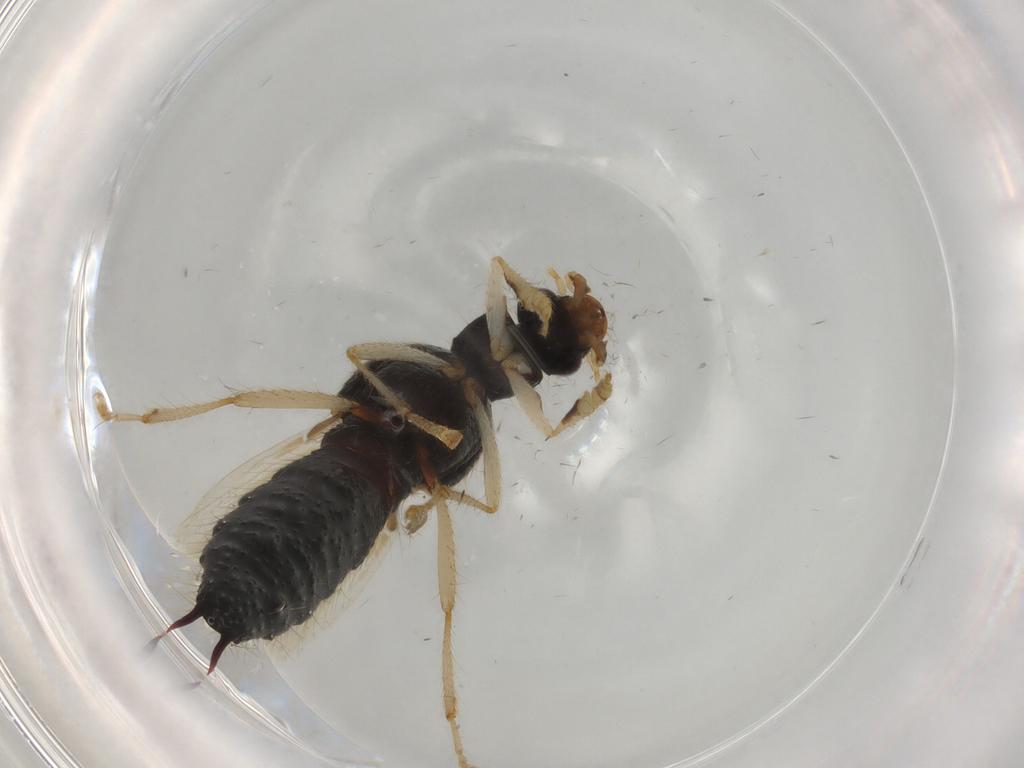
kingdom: Animalia
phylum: Arthropoda
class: Insecta
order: Coleoptera
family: Staphylinidae
